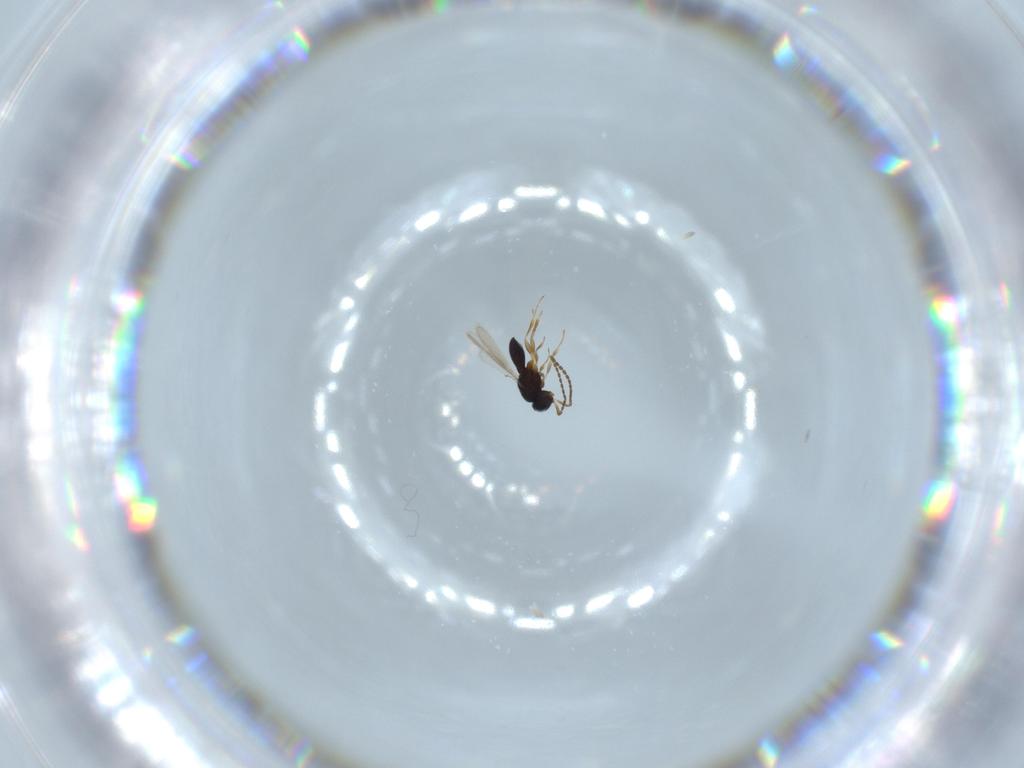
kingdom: Animalia
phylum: Arthropoda
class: Insecta
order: Hymenoptera
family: Scelionidae
